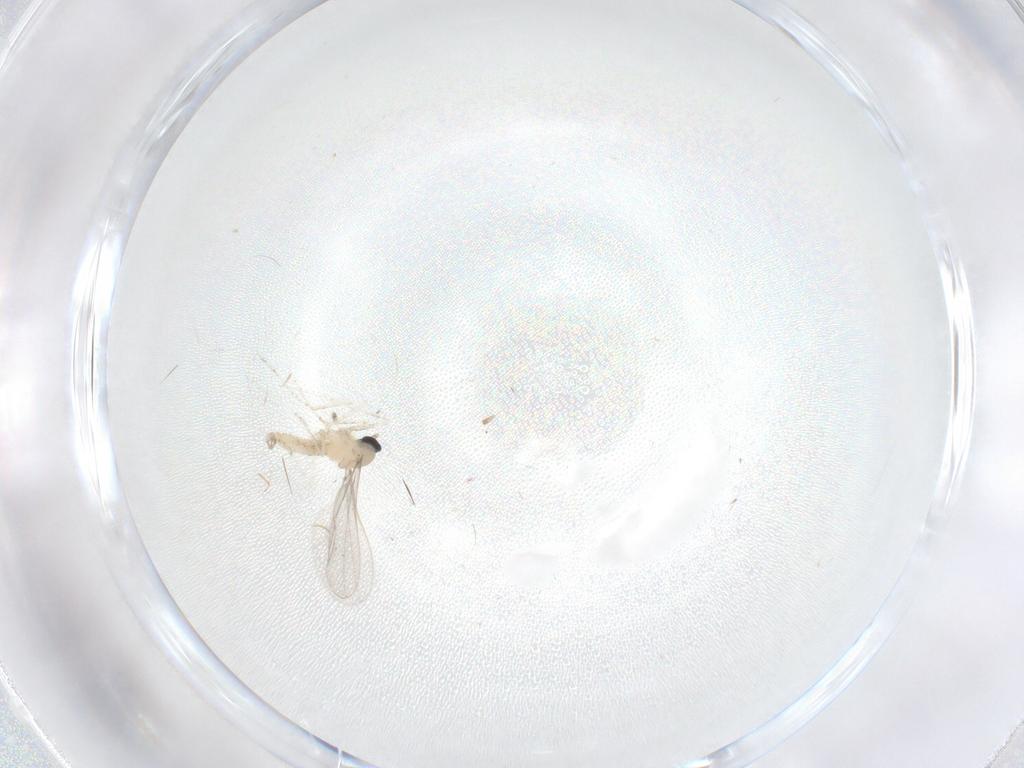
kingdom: Animalia
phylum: Arthropoda
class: Insecta
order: Diptera
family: Cecidomyiidae
